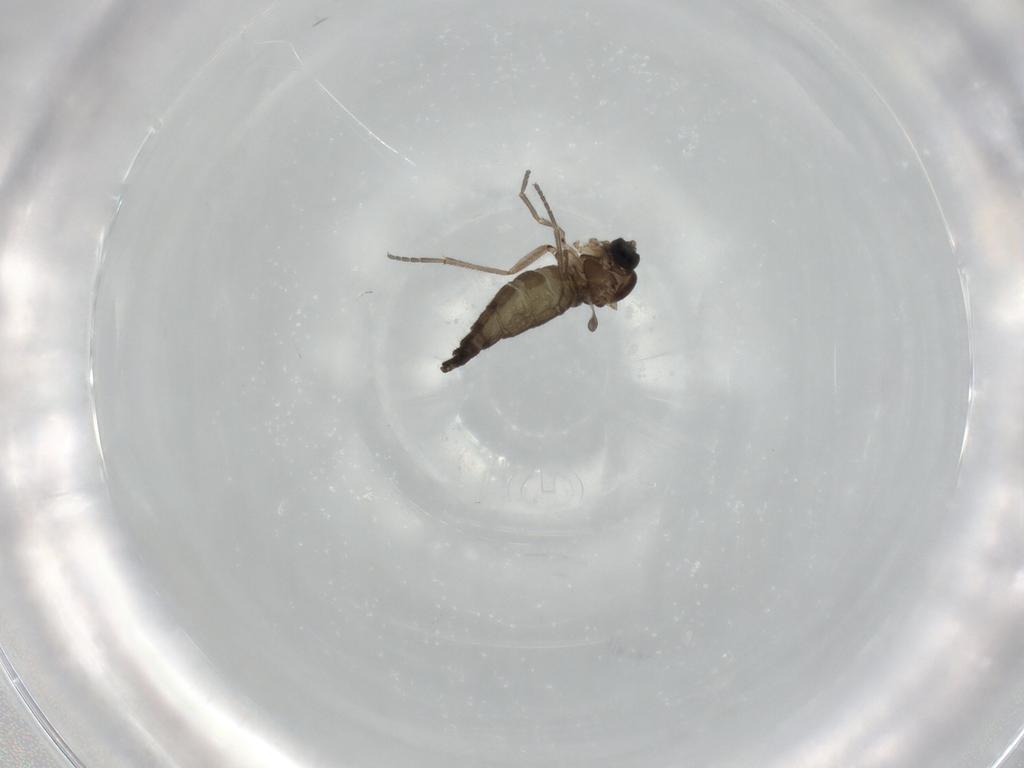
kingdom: Animalia
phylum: Arthropoda
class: Insecta
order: Diptera
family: Sciaridae
